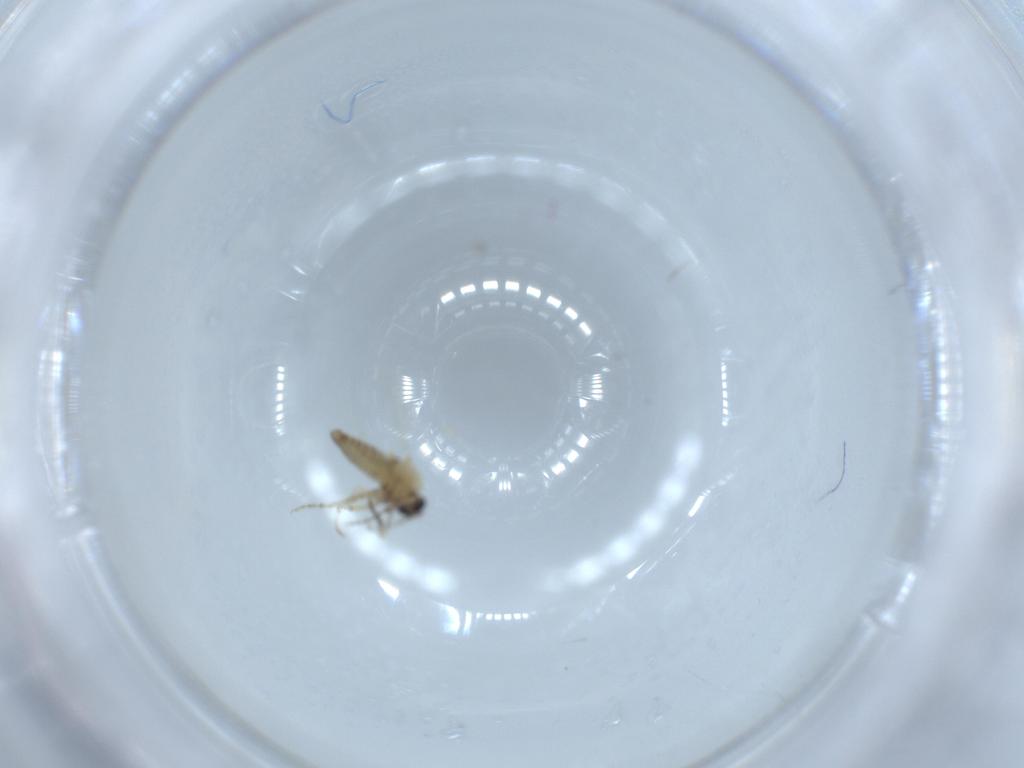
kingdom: Animalia
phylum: Arthropoda
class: Insecta
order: Diptera
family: Ceratopogonidae
